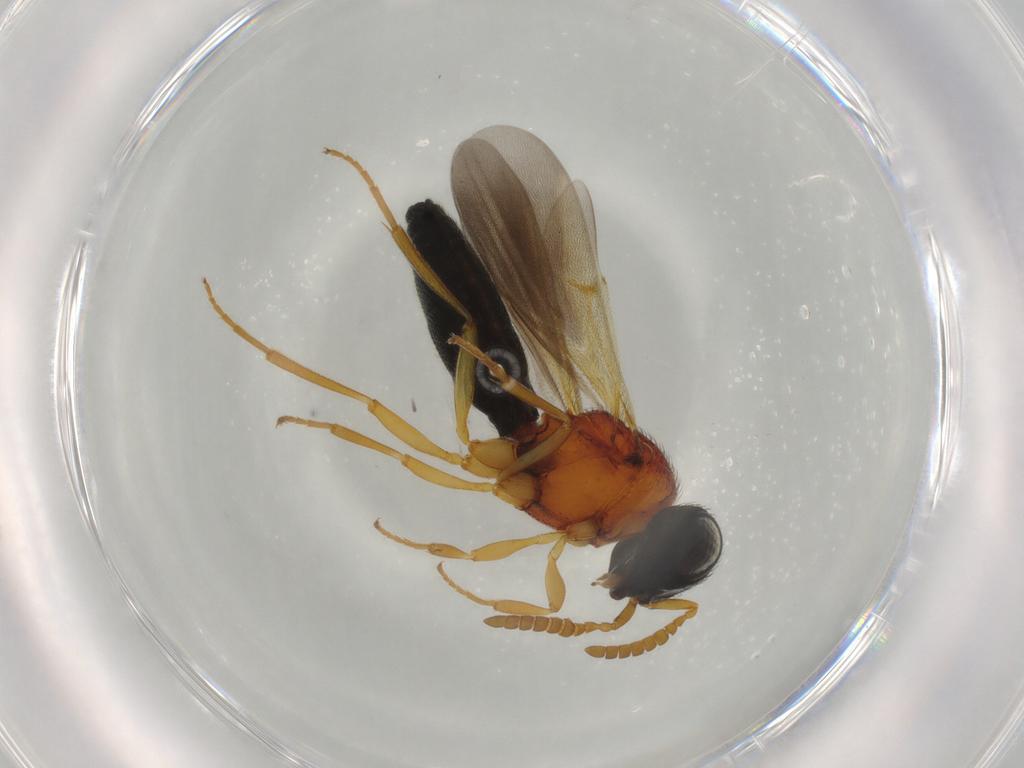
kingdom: Animalia
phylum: Arthropoda
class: Insecta
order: Hymenoptera
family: Scelionidae
